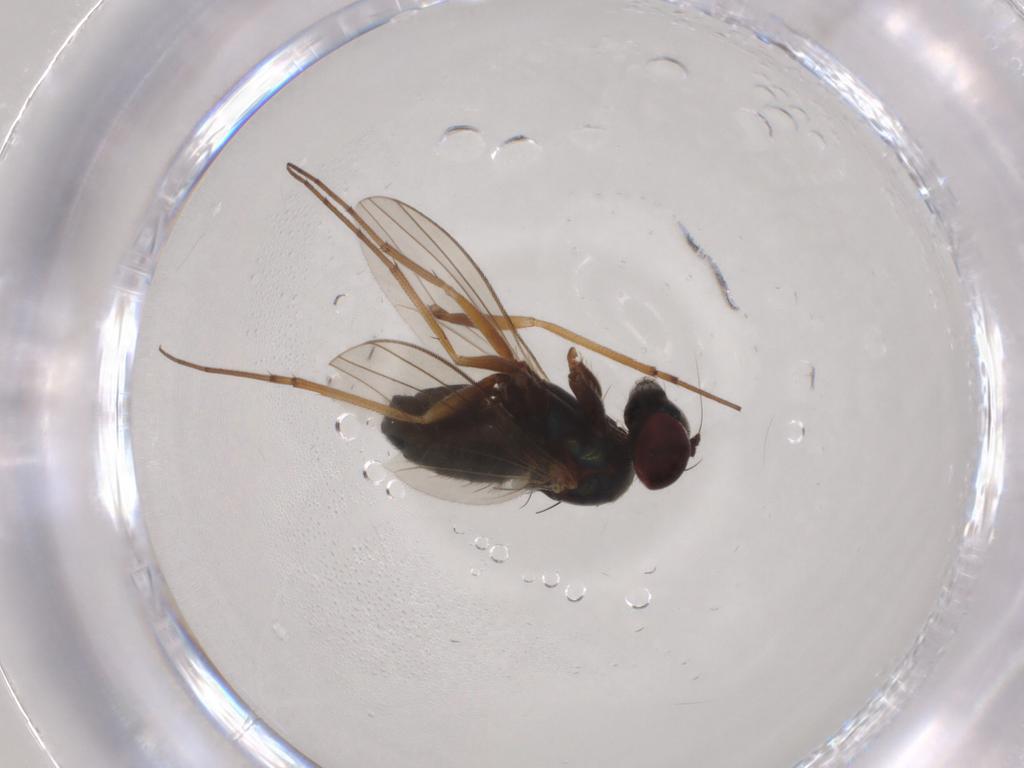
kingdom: Animalia
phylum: Arthropoda
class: Insecta
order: Diptera
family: Dolichopodidae
